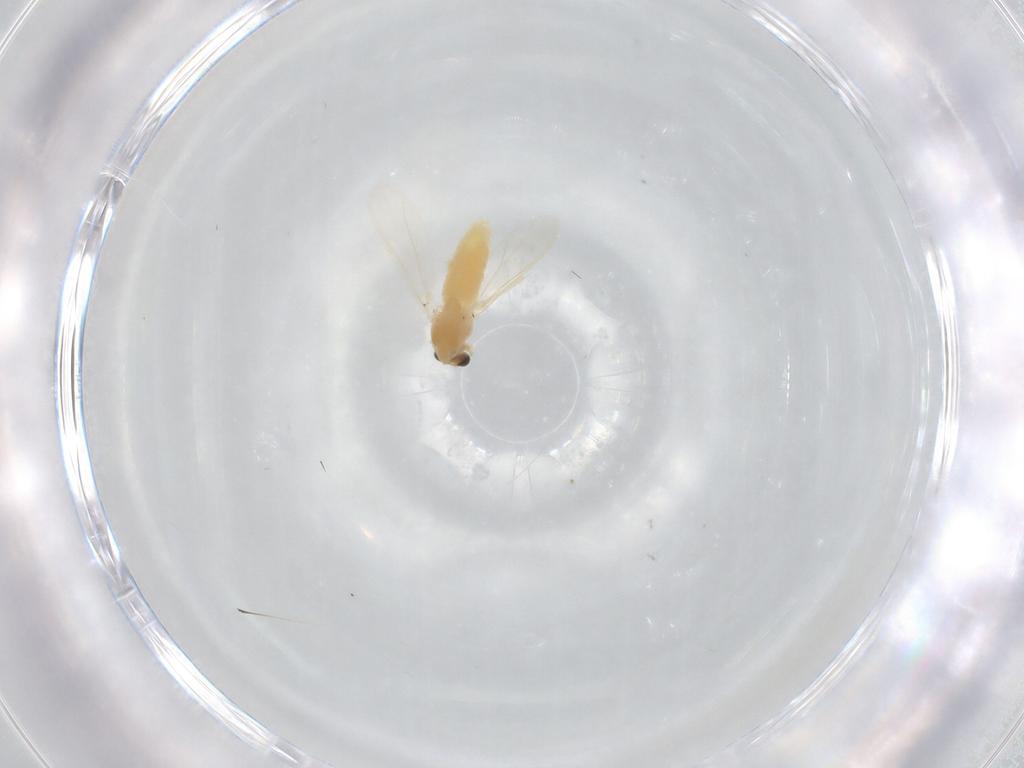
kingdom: Animalia
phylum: Arthropoda
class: Insecta
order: Diptera
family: Chironomidae
